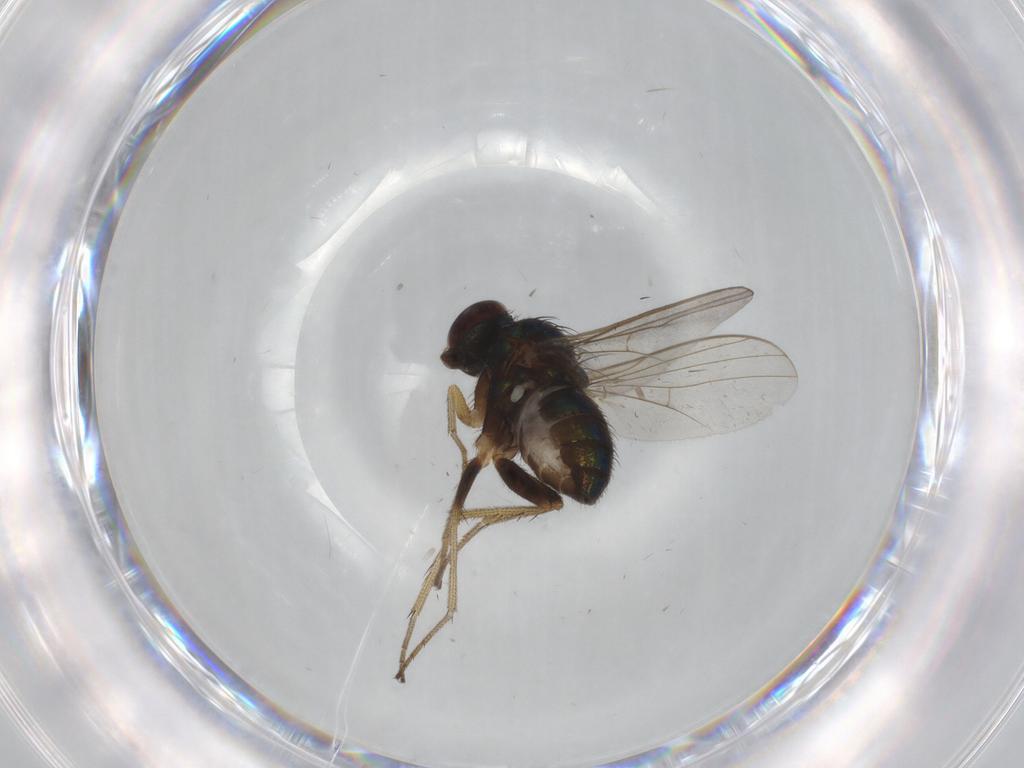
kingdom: Animalia
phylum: Arthropoda
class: Insecta
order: Diptera
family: Dolichopodidae
